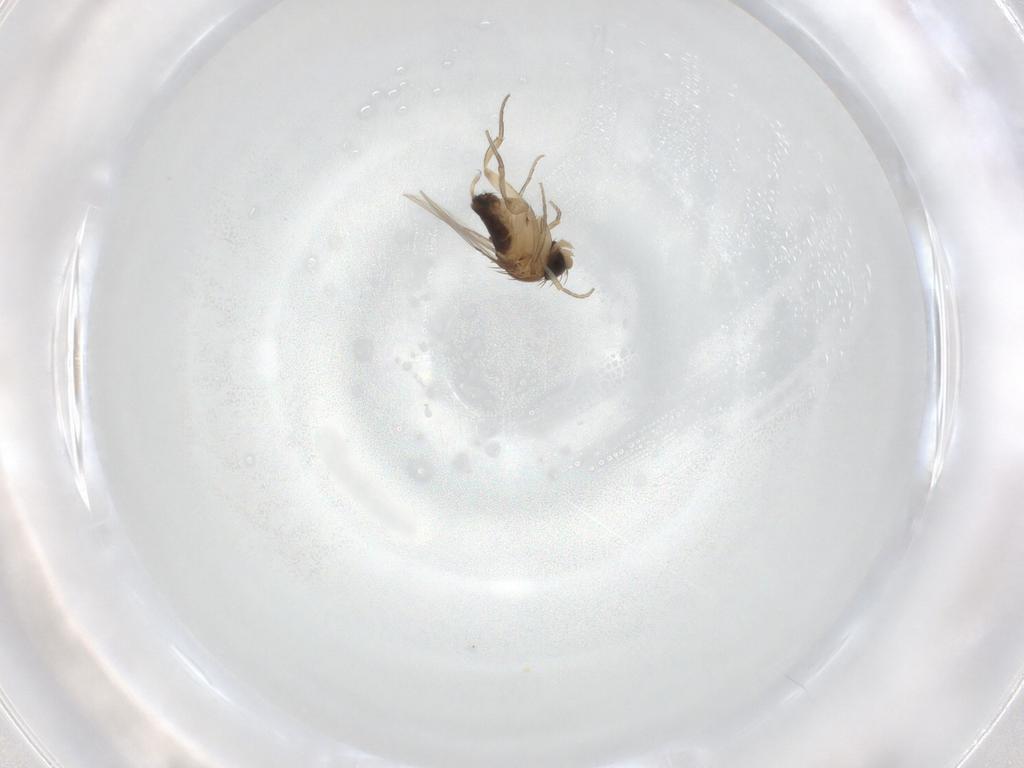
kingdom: Animalia
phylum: Arthropoda
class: Insecta
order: Diptera
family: Phoridae
